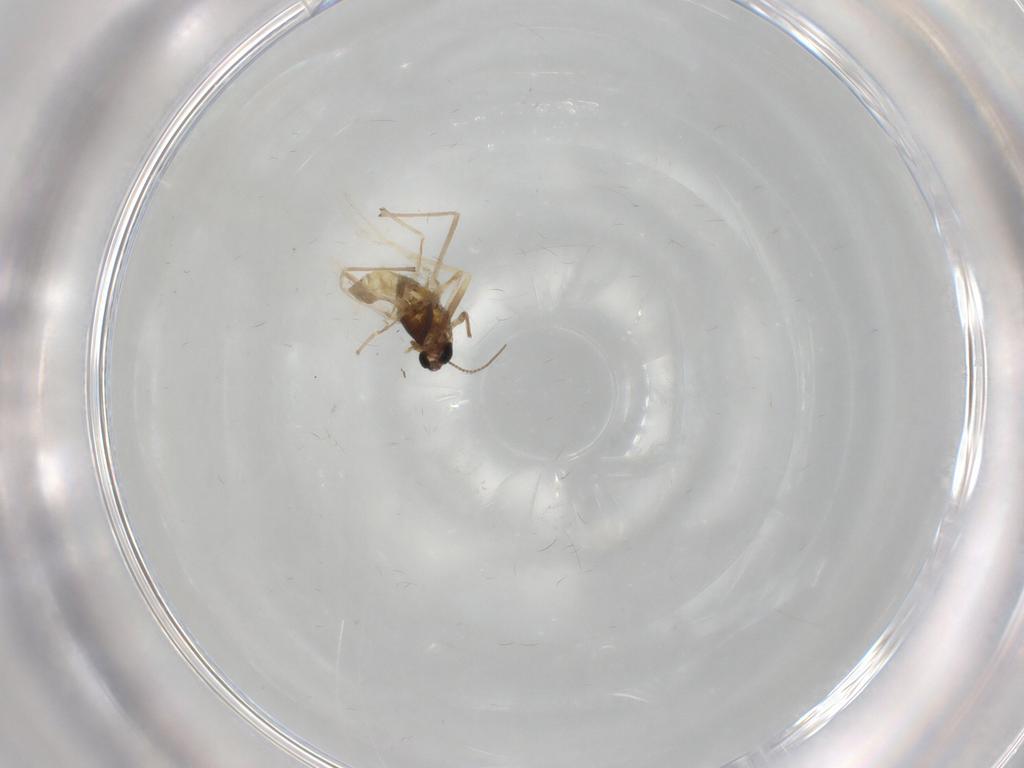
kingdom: Animalia
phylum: Arthropoda
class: Insecta
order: Diptera
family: Chironomidae
